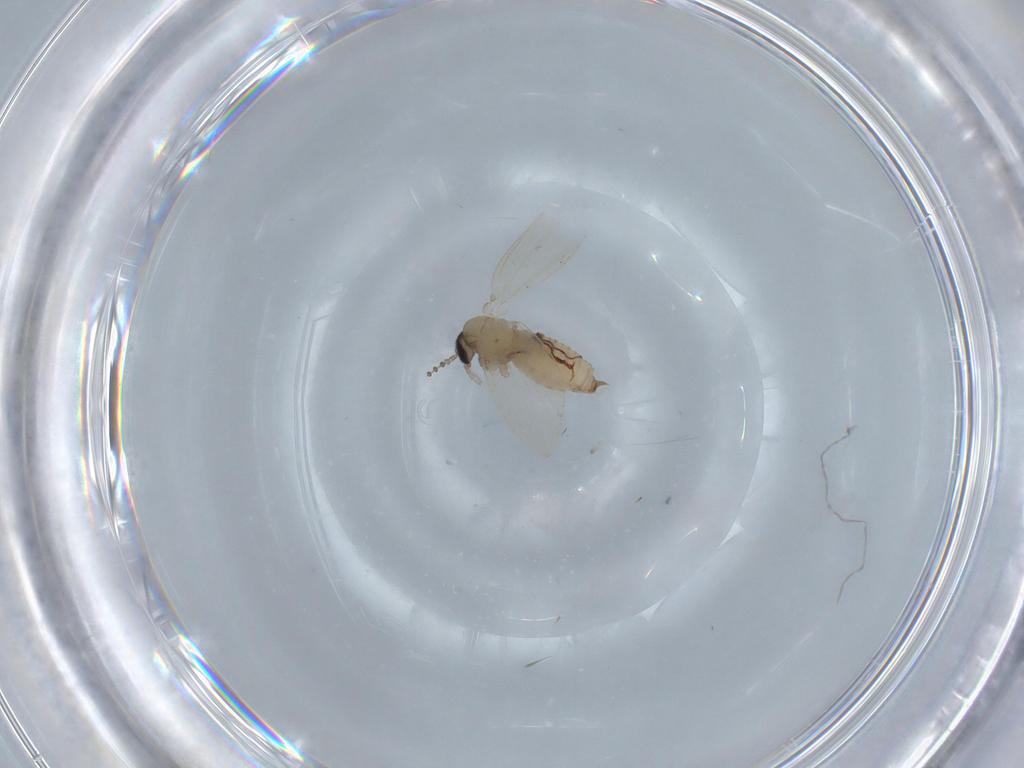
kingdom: Animalia
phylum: Arthropoda
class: Insecta
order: Diptera
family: Psychodidae
